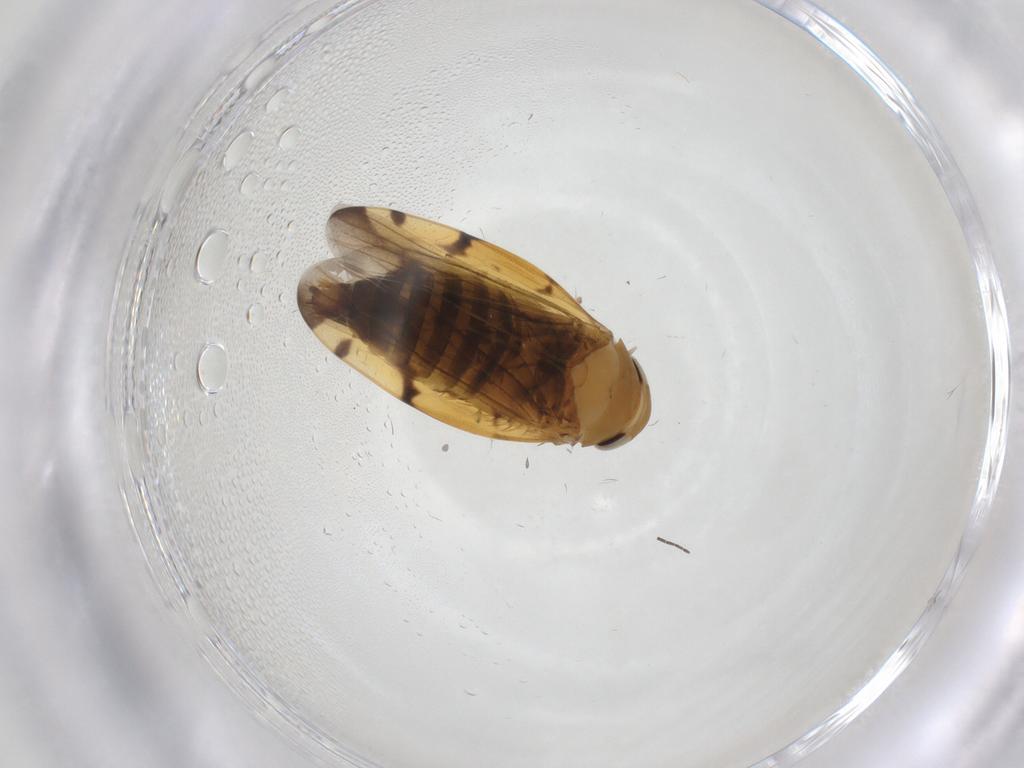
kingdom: Animalia
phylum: Arthropoda
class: Insecta
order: Hemiptera
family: Cicadellidae
